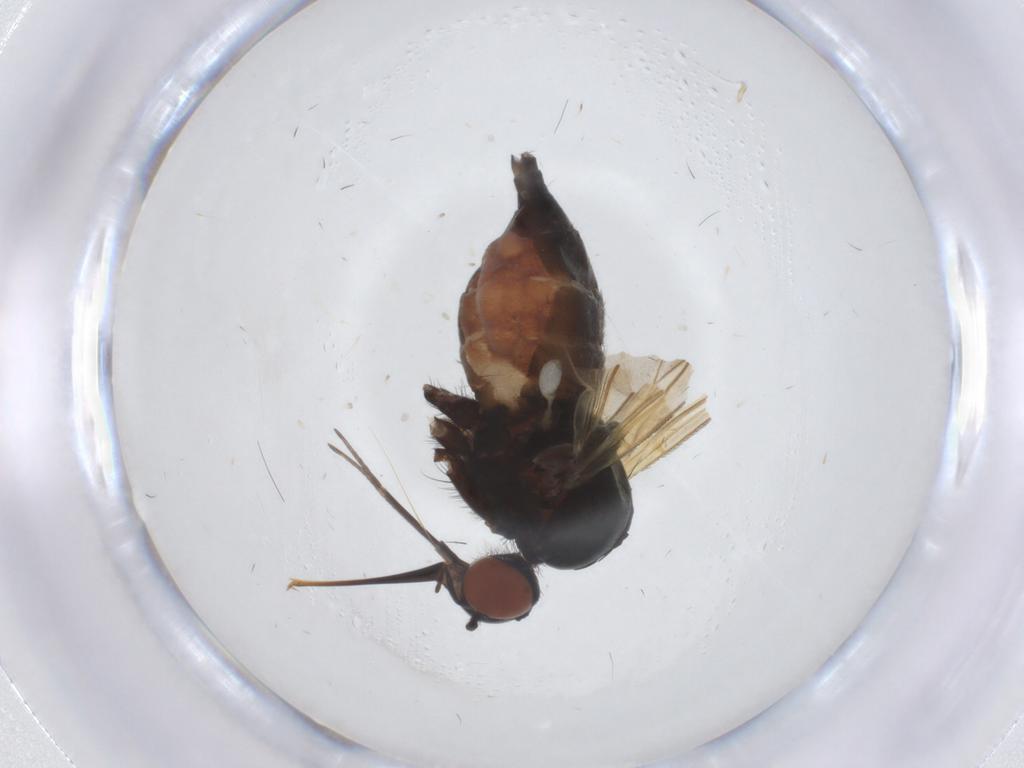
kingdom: Animalia
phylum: Arthropoda
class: Insecta
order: Diptera
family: Empididae
